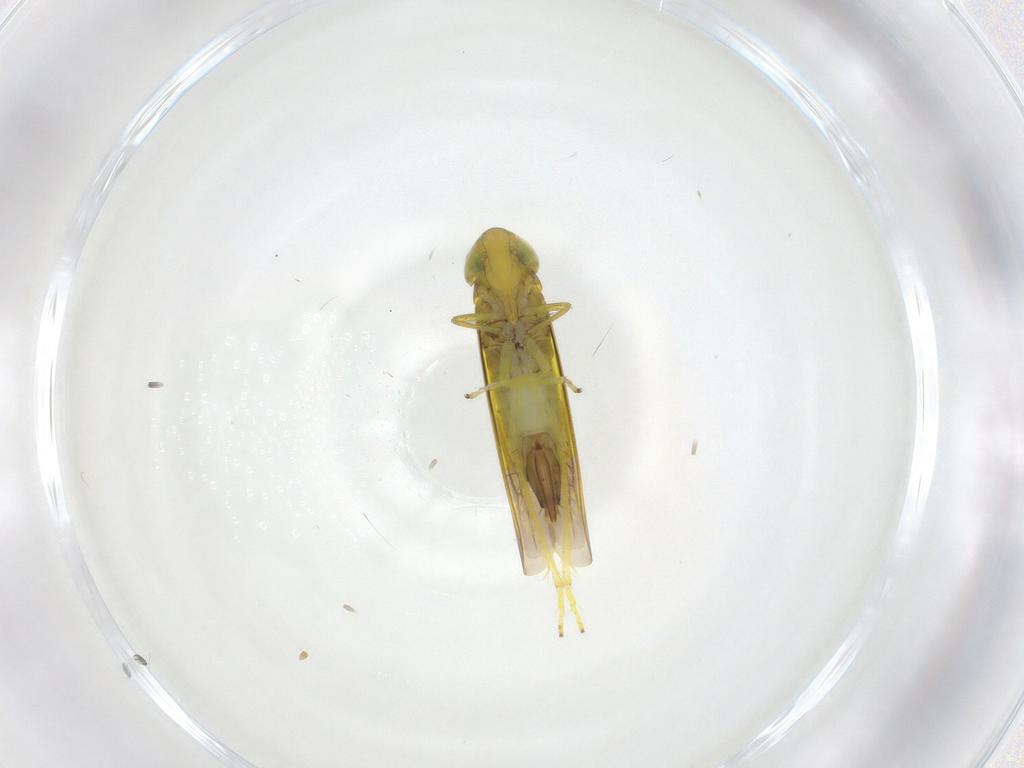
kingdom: Animalia
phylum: Arthropoda
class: Insecta
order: Hemiptera
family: Cicadellidae
